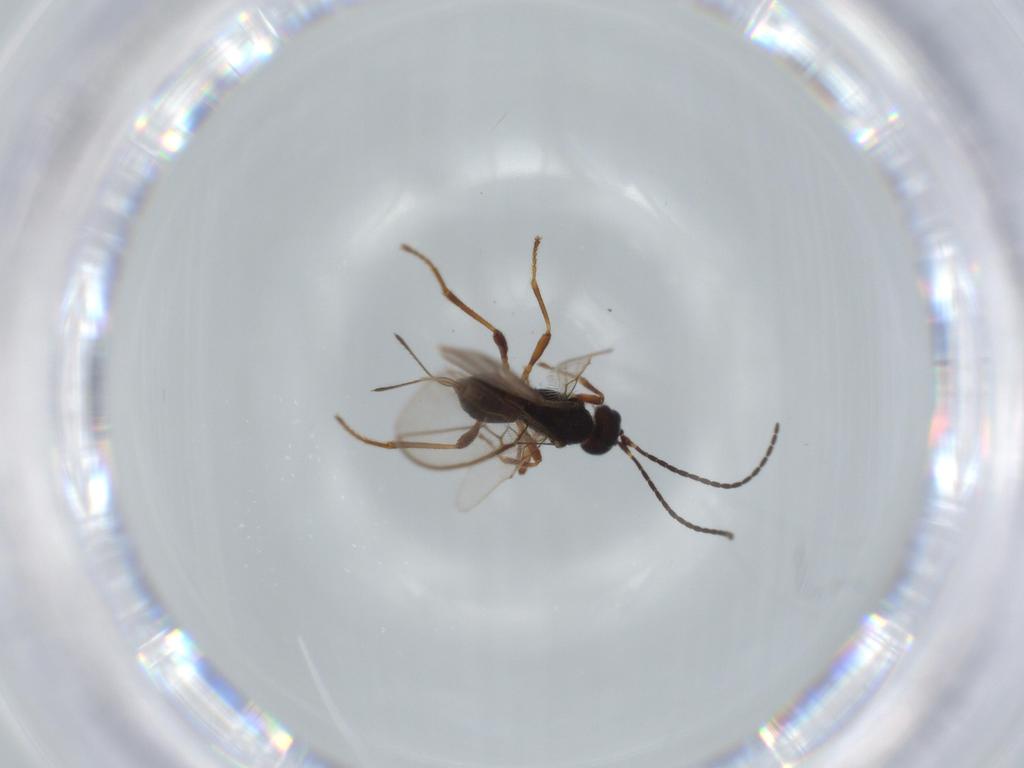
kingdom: Animalia
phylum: Arthropoda
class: Insecta
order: Hymenoptera
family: Braconidae
